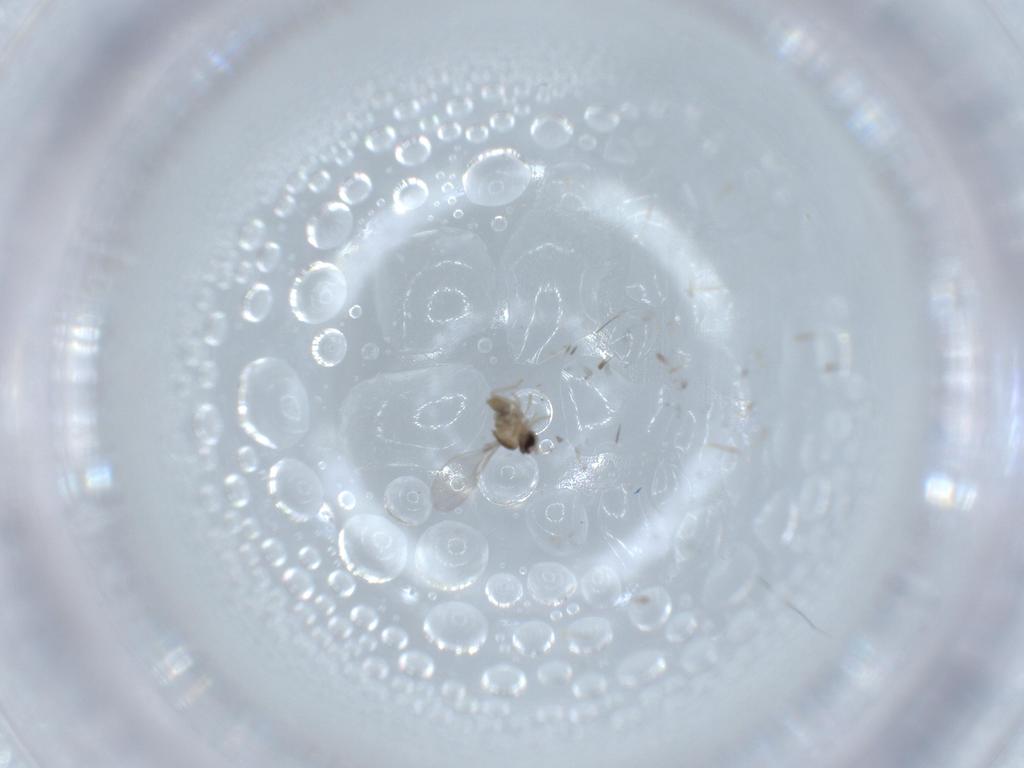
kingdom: Animalia
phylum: Arthropoda
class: Insecta
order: Diptera
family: Cecidomyiidae
